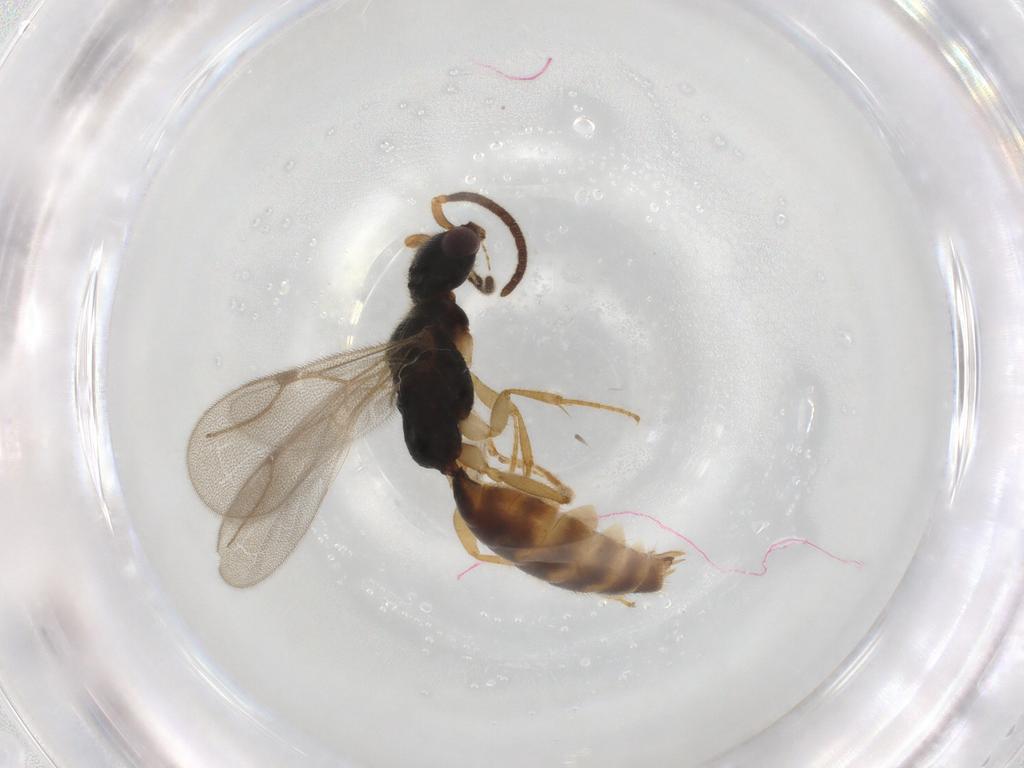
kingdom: Animalia
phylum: Arthropoda
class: Insecta
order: Hymenoptera
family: Bethylidae
